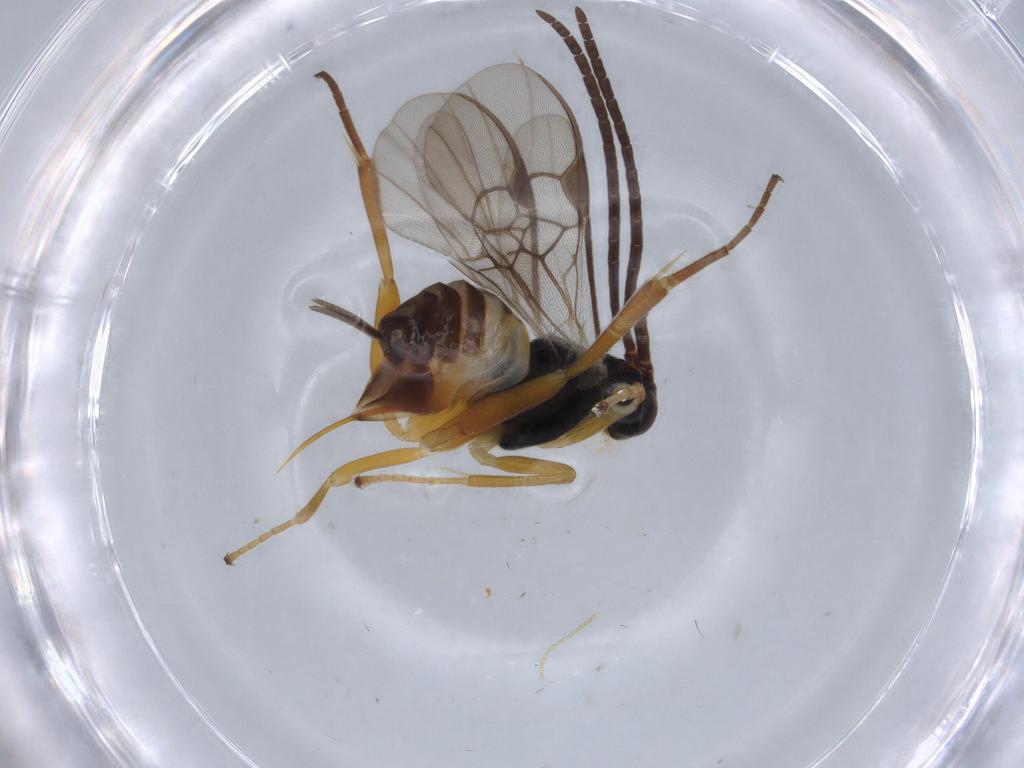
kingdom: Animalia
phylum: Arthropoda
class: Insecta
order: Hymenoptera
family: Braconidae
